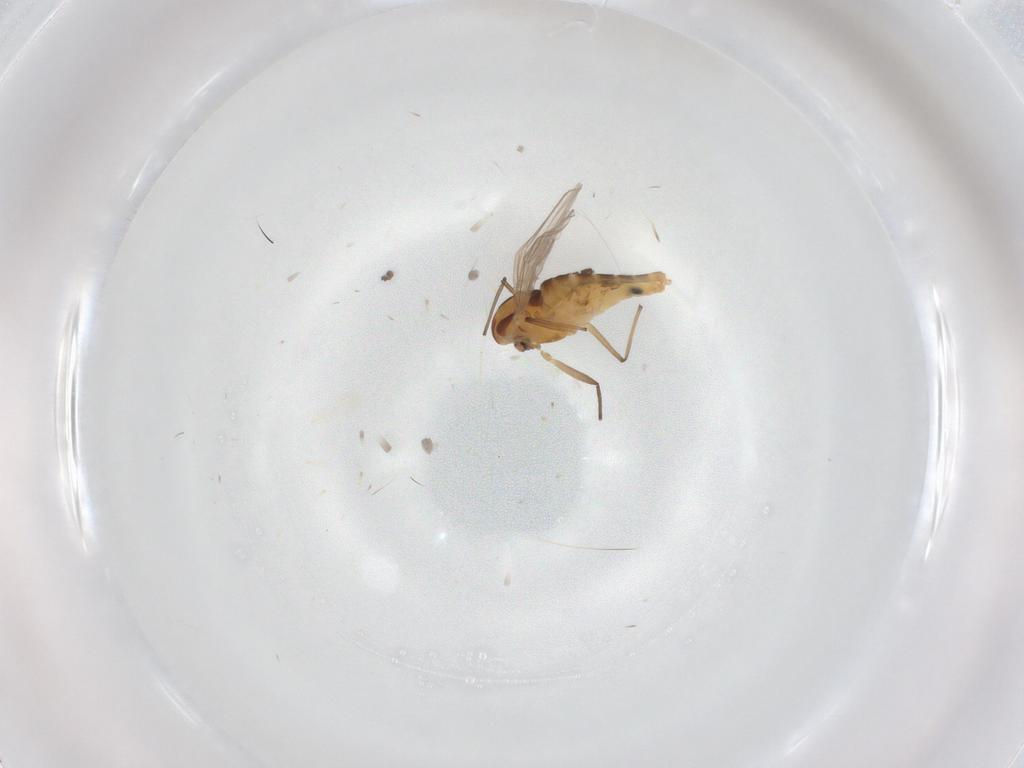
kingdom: Animalia
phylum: Arthropoda
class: Insecta
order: Diptera
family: Chironomidae
